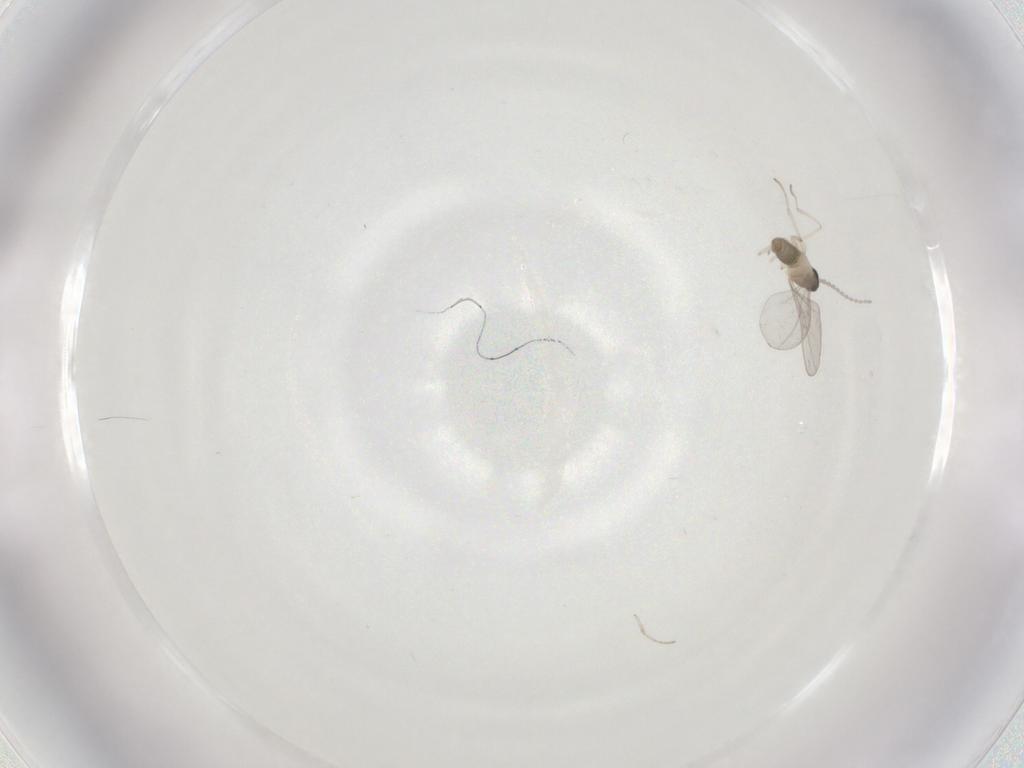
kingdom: Animalia
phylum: Arthropoda
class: Insecta
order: Diptera
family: Cecidomyiidae
